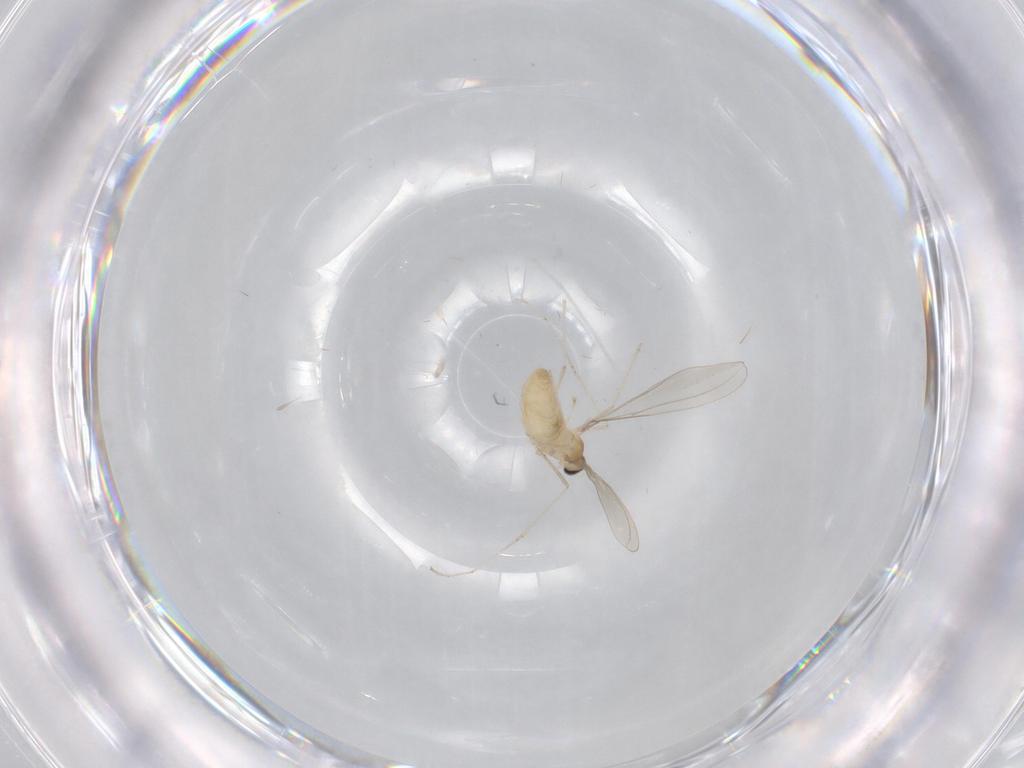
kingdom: Animalia
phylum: Arthropoda
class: Insecta
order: Diptera
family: Cecidomyiidae
